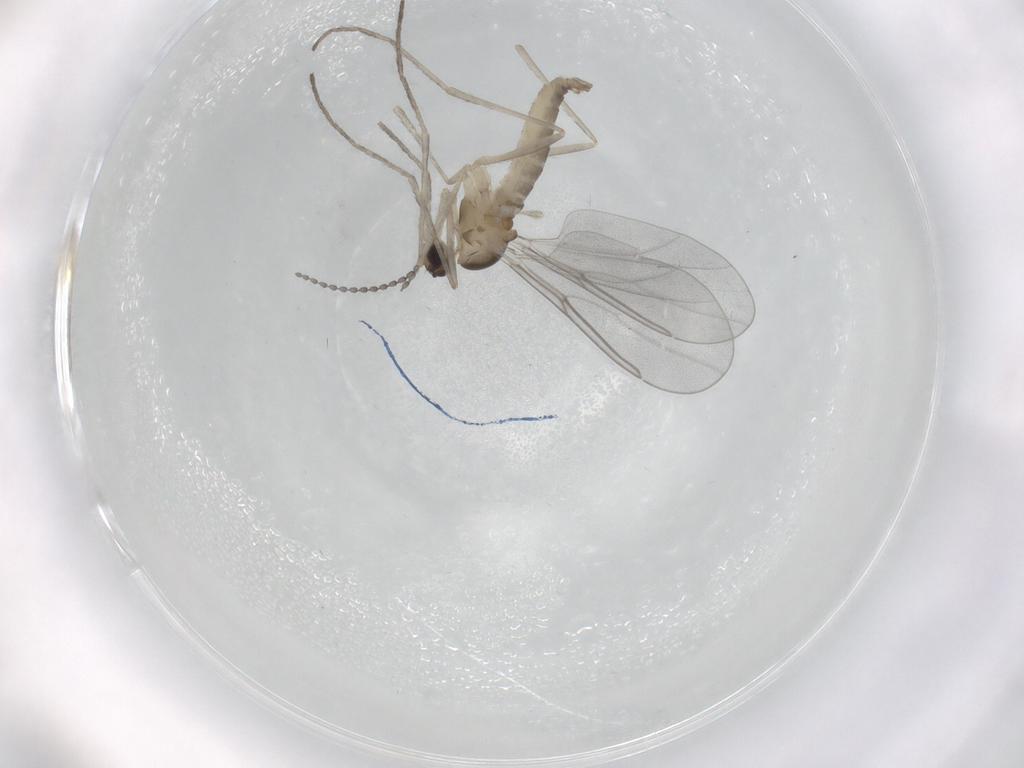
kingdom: Animalia
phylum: Arthropoda
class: Insecta
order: Diptera
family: Cecidomyiidae
